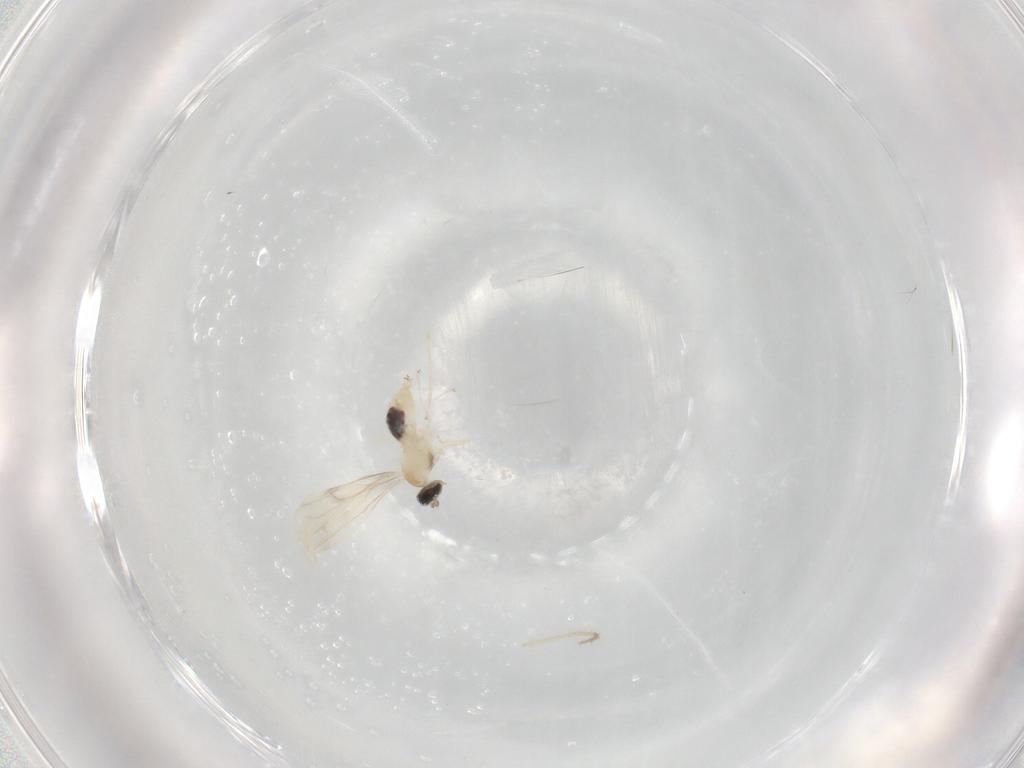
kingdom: Animalia
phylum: Arthropoda
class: Insecta
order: Diptera
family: Cecidomyiidae
